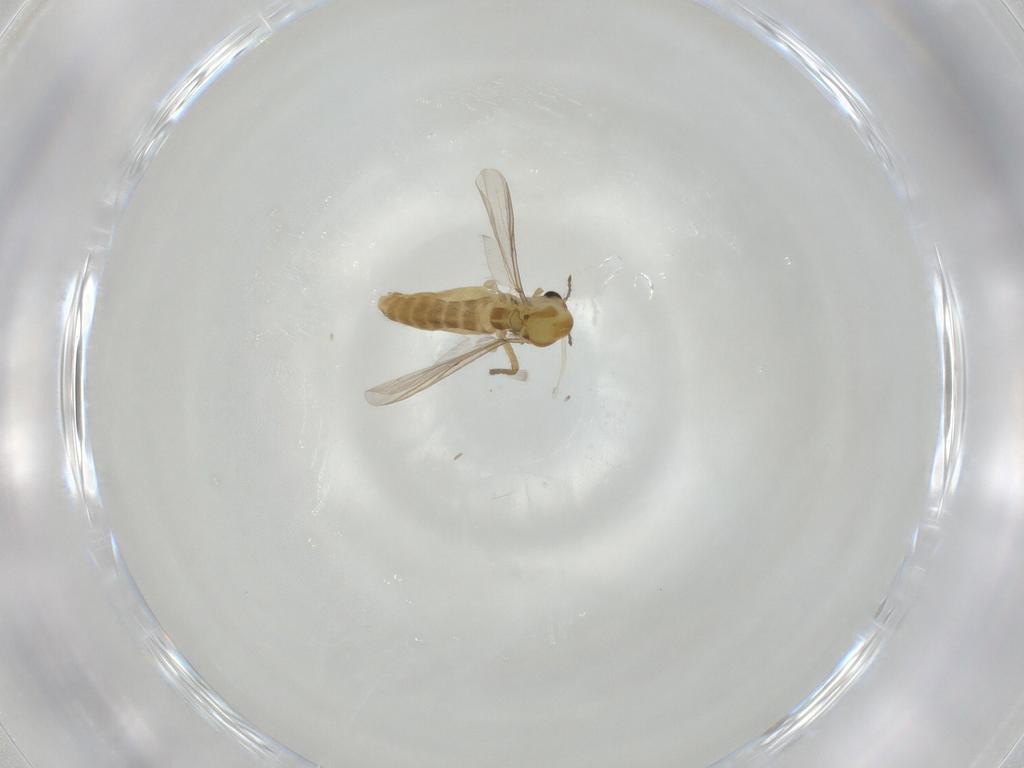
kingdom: Animalia
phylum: Arthropoda
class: Insecta
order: Diptera
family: Chironomidae
